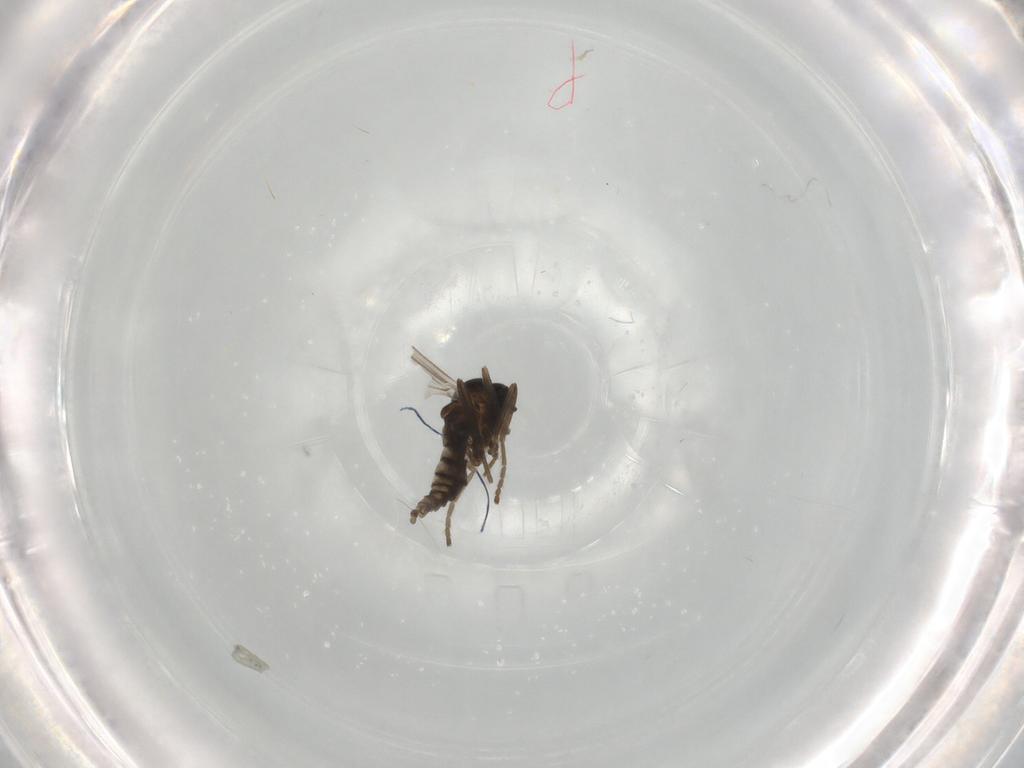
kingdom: Animalia
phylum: Arthropoda
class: Insecta
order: Diptera
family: Cecidomyiidae
